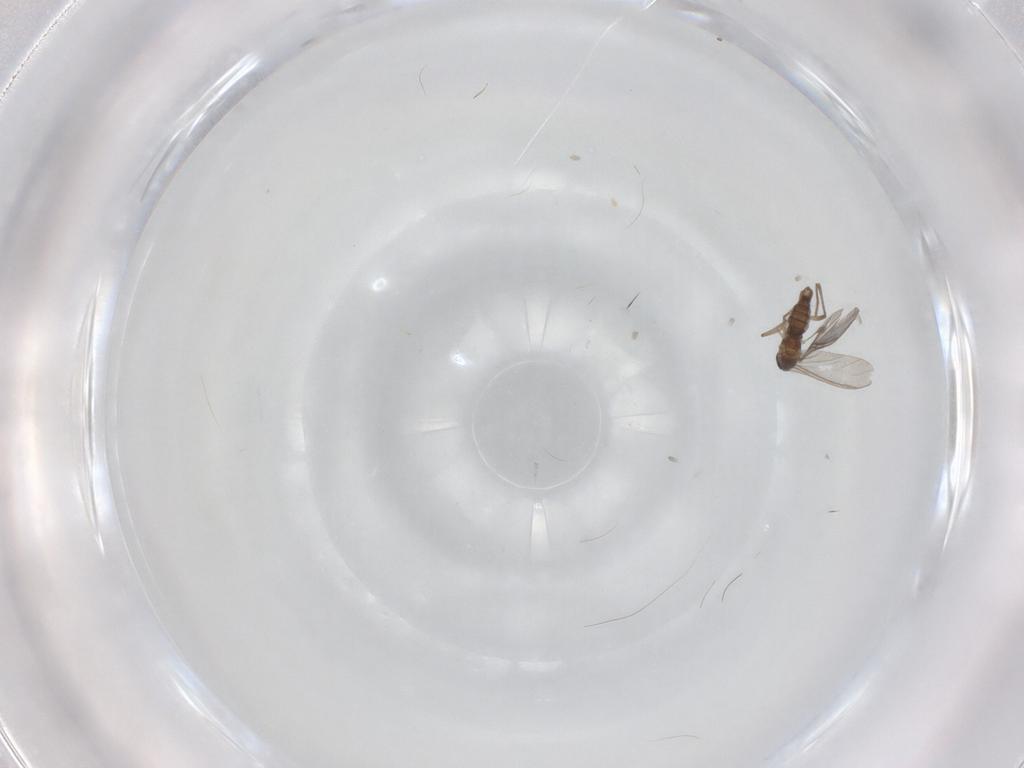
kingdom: Animalia
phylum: Arthropoda
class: Insecta
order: Diptera
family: Sciaridae
